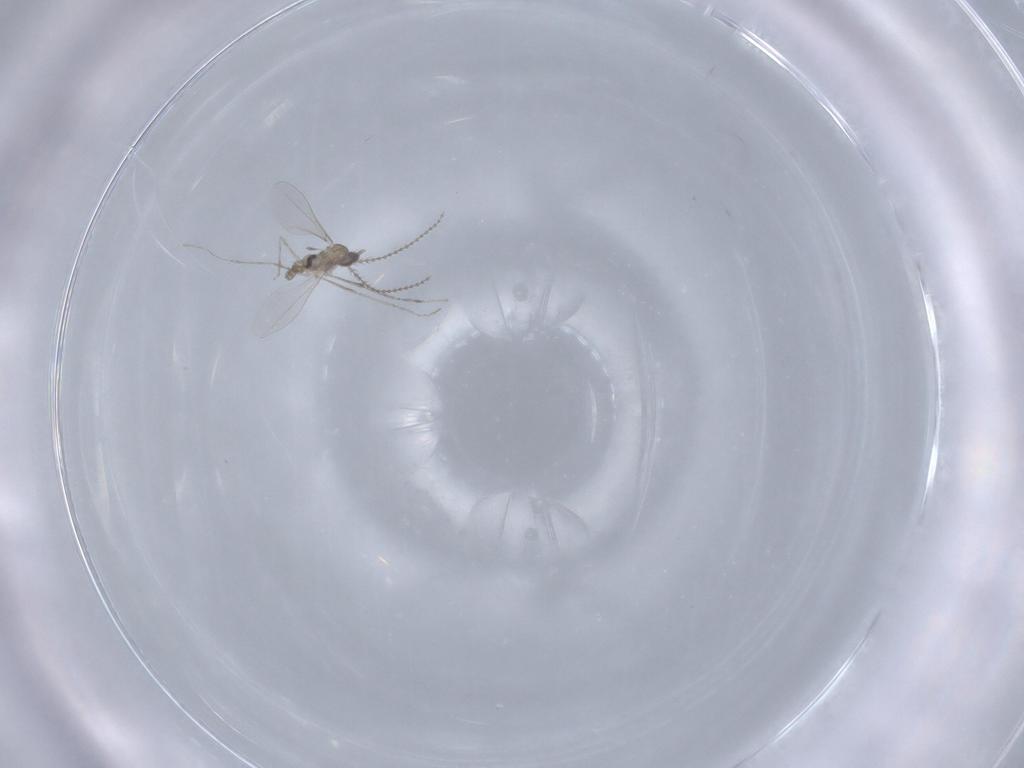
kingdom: Animalia
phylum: Arthropoda
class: Insecta
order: Diptera
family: Cecidomyiidae
